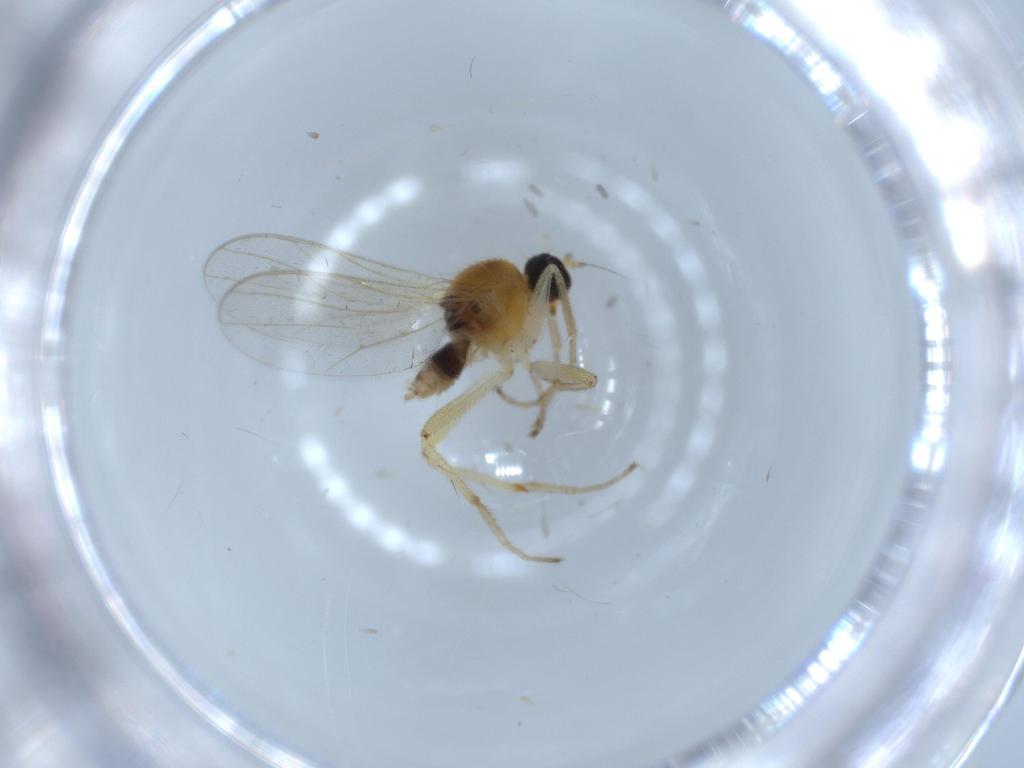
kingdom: Animalia
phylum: Arthropoda
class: Insecta
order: Diptera
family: Hybotidae
